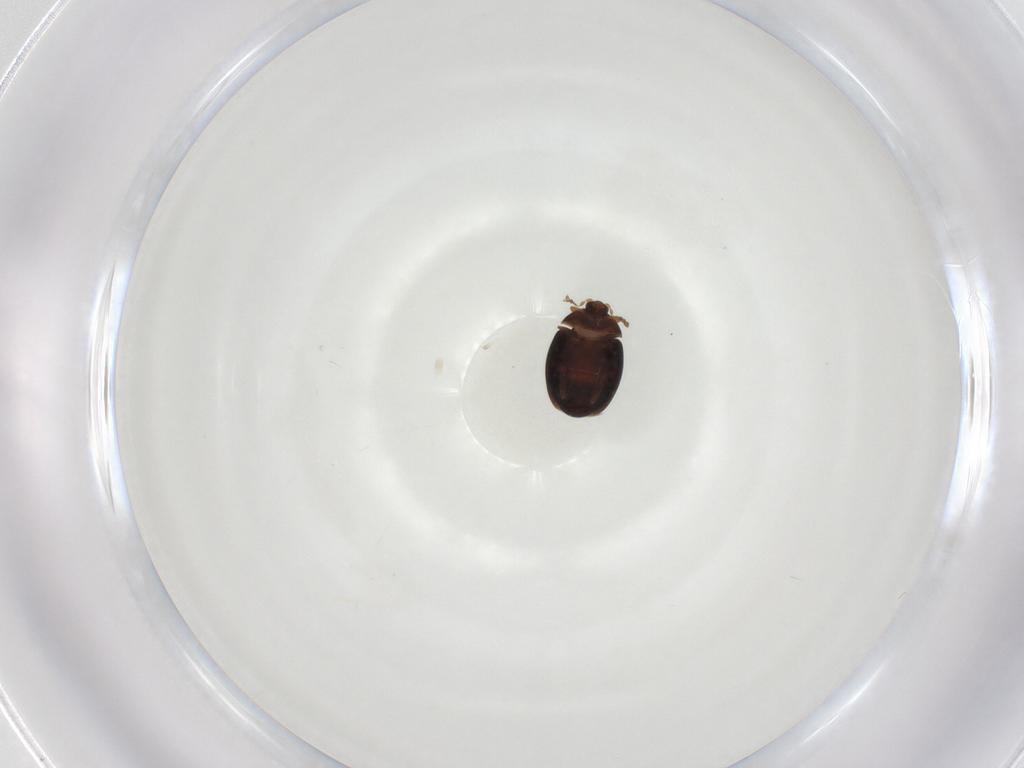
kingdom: Animalia
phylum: Arthropoda
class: Insecta
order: Coleoptera
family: Corylophidae
